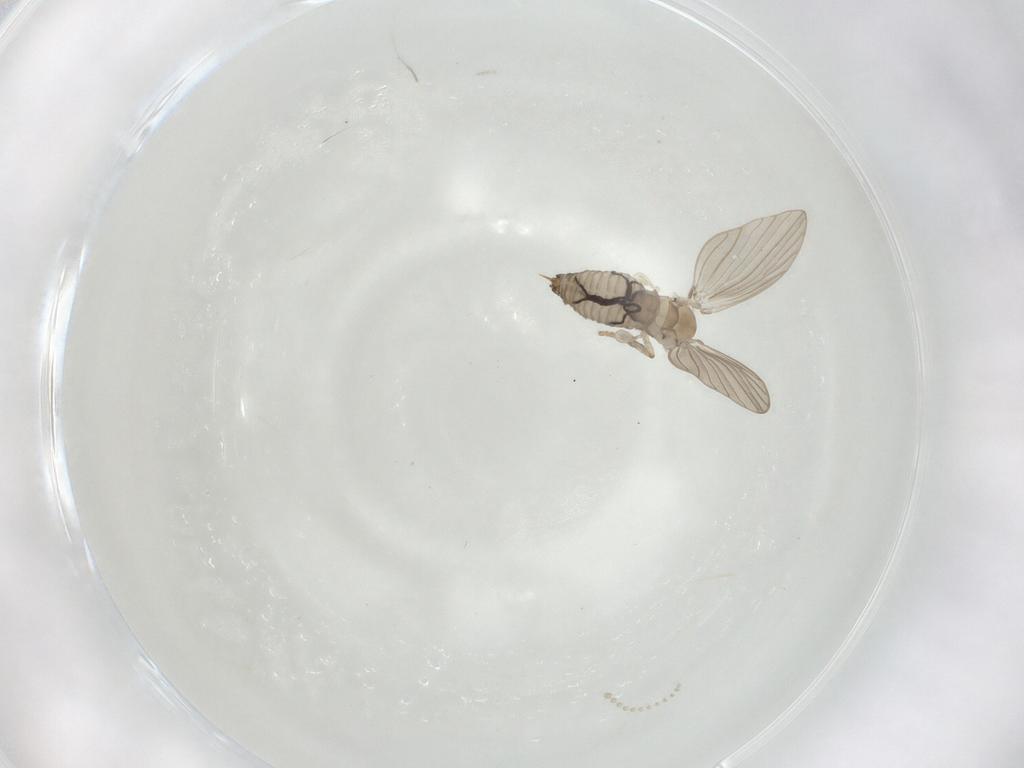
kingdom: Animalia
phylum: Arthropoda
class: Insecta
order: Diptera
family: Psychodidae
